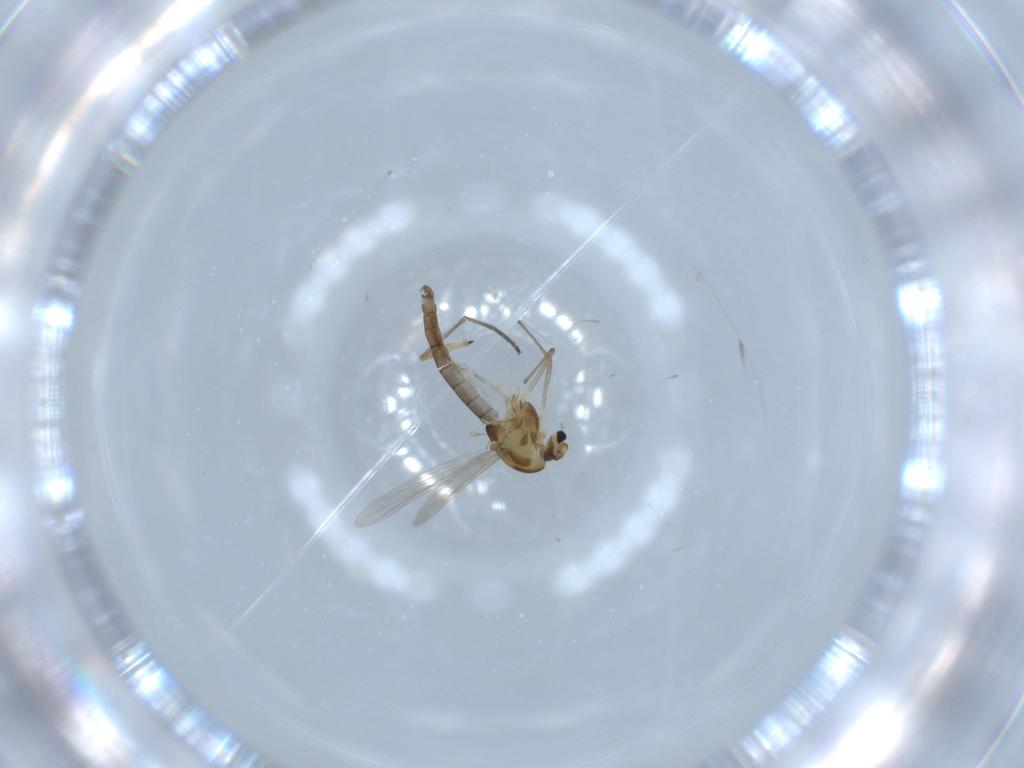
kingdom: Animalia
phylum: Arthropoda
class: Insecta
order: Diptera
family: Chironomidae
